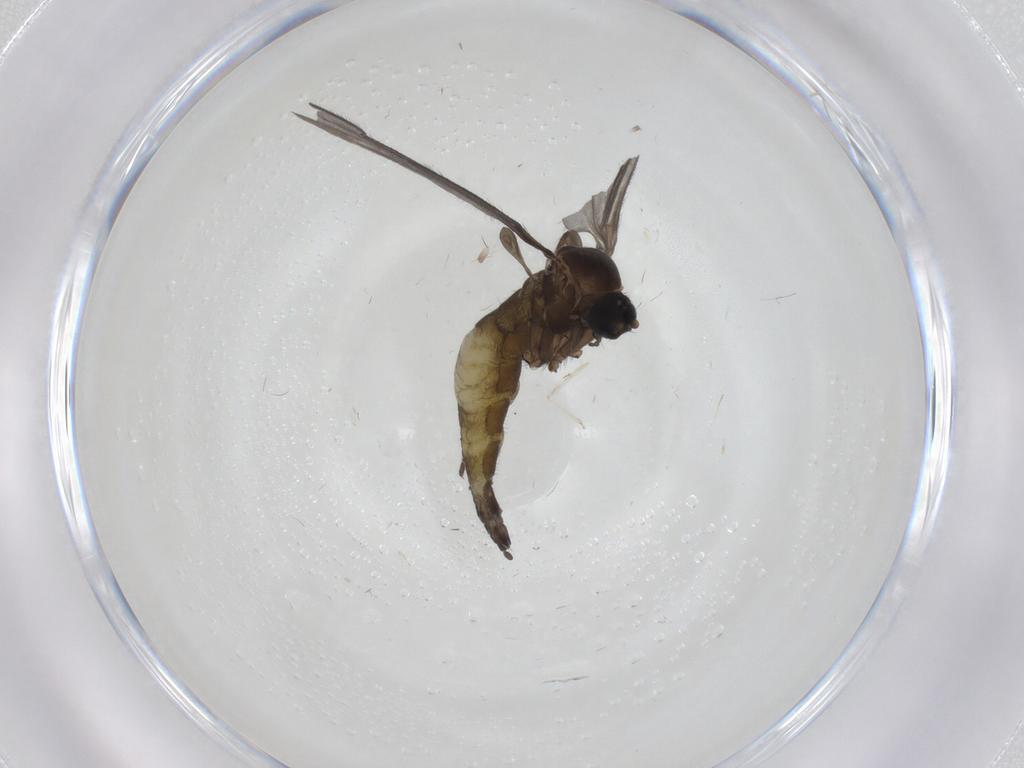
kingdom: Animalia
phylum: Arthropoda
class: Insecta
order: Diptera
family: Sciaridae
